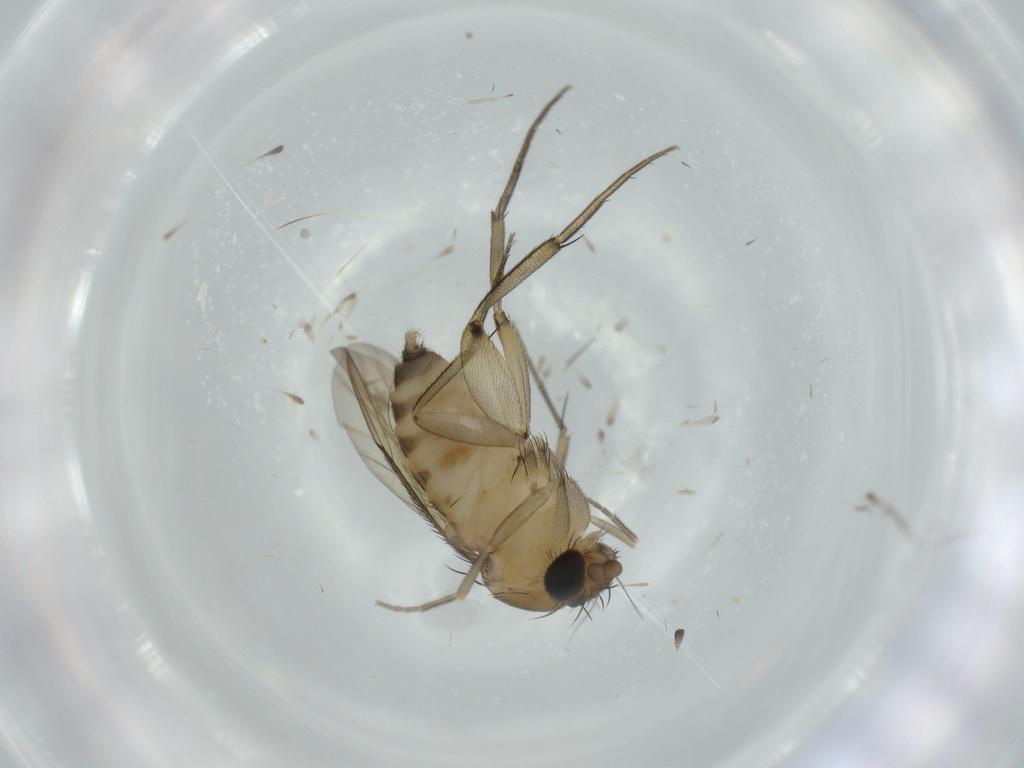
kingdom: Animalia
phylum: Arthropoda
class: Insecta
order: Diptera
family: Phoridae
